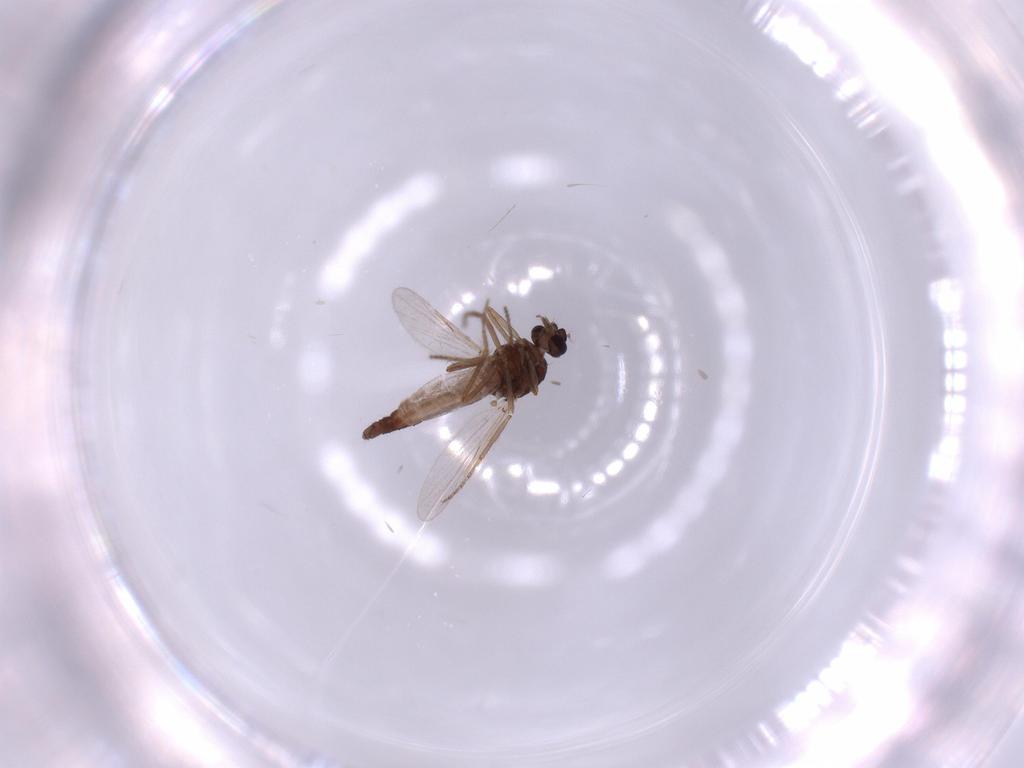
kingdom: Animalia
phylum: Arthropoda
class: Insecta
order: Diptera
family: Ceratopogonidae
